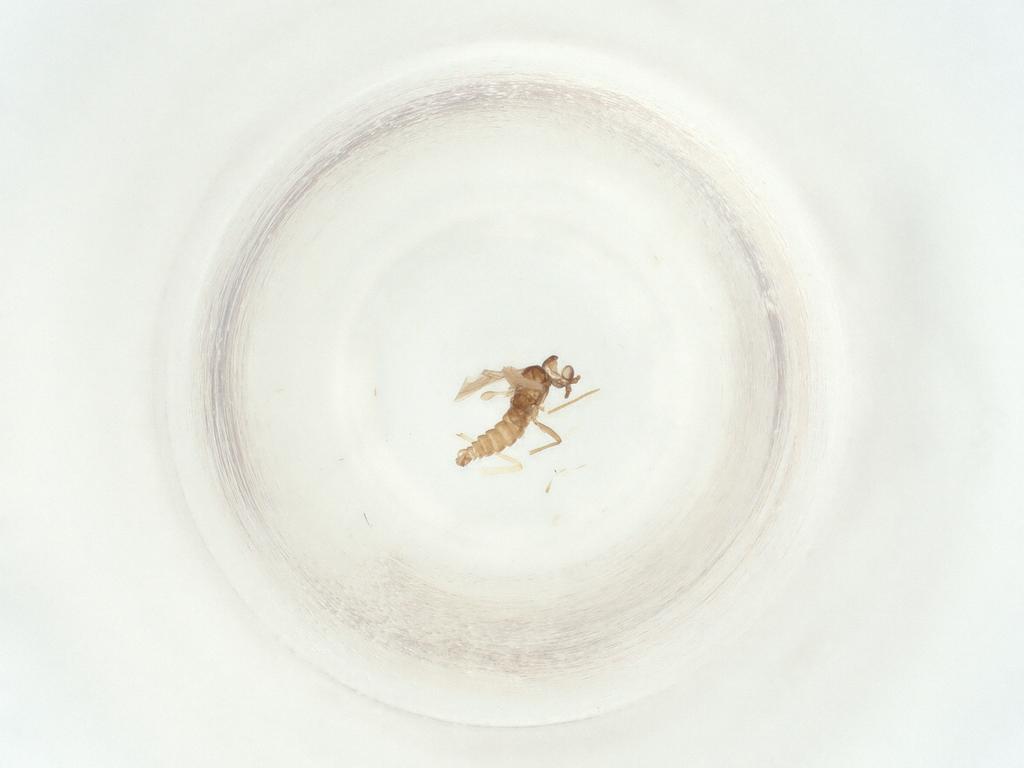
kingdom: Animalia
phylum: Arthropoda
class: Insecta
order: Diptera
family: Sciaridae
